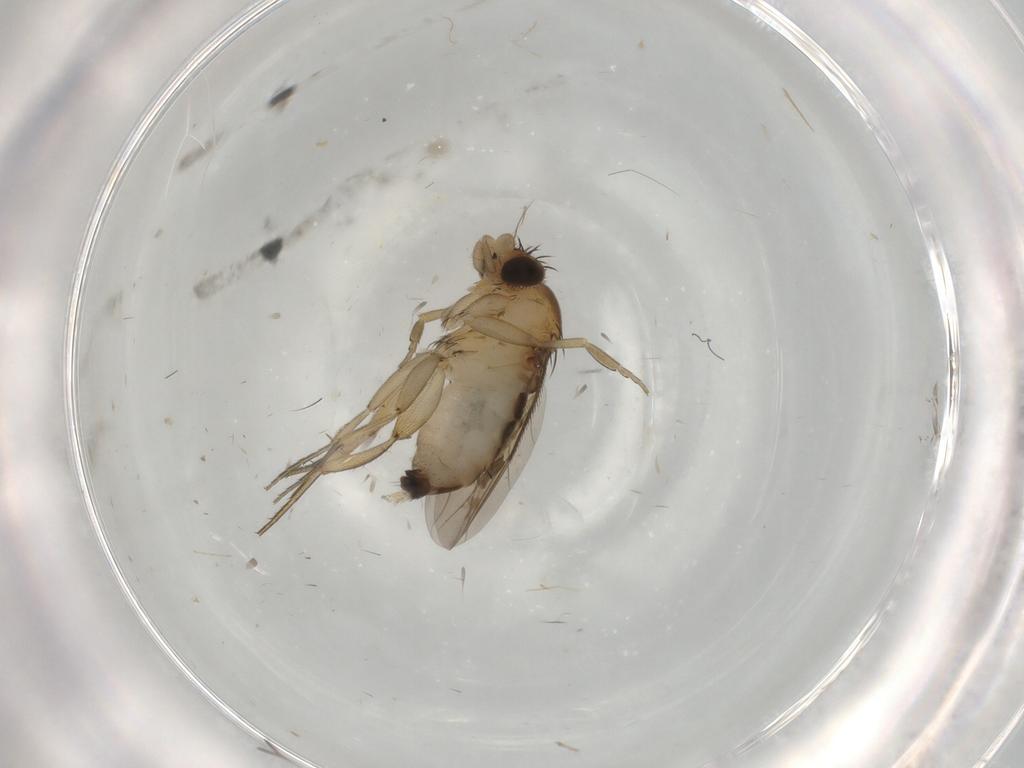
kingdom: Animalia
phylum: Arthropoda
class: Insecta
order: Diptera
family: Phoridae
